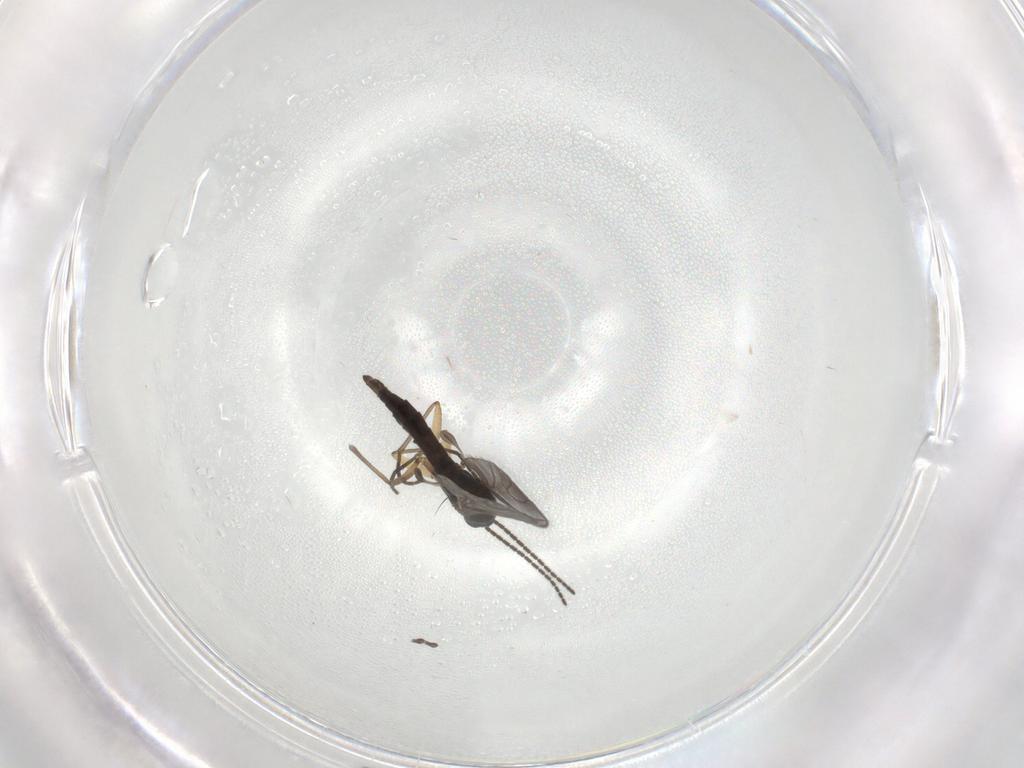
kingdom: Animalia
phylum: Arthropoda
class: Insecta
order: Diptera
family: Sciaridae
